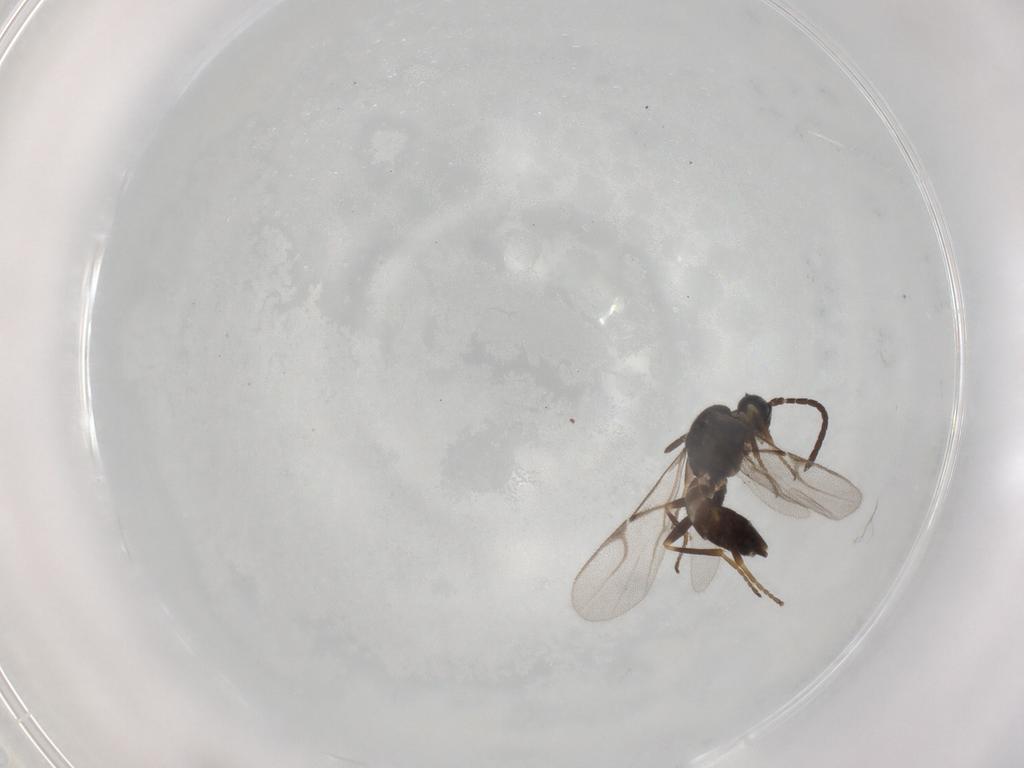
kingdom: Animalia
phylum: Arthropoda
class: Insecta
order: Hymenoptera
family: Braconidae
